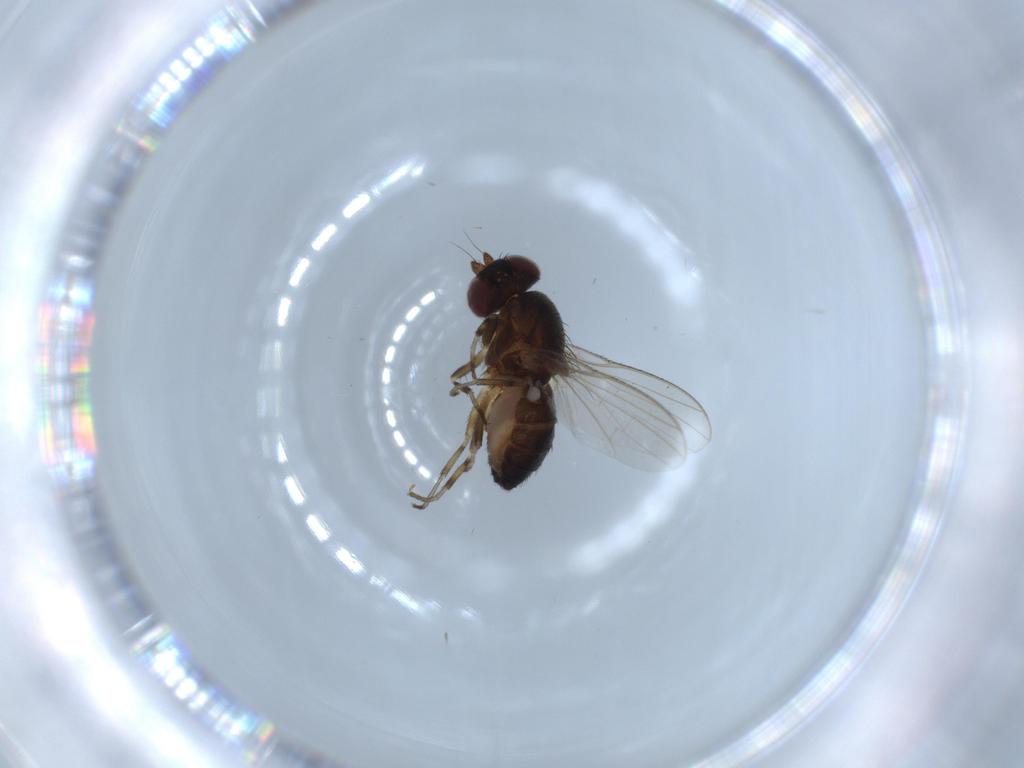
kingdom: Animalia
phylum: Arthropoda
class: Insecta
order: Diptera
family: Heleomyzidae
